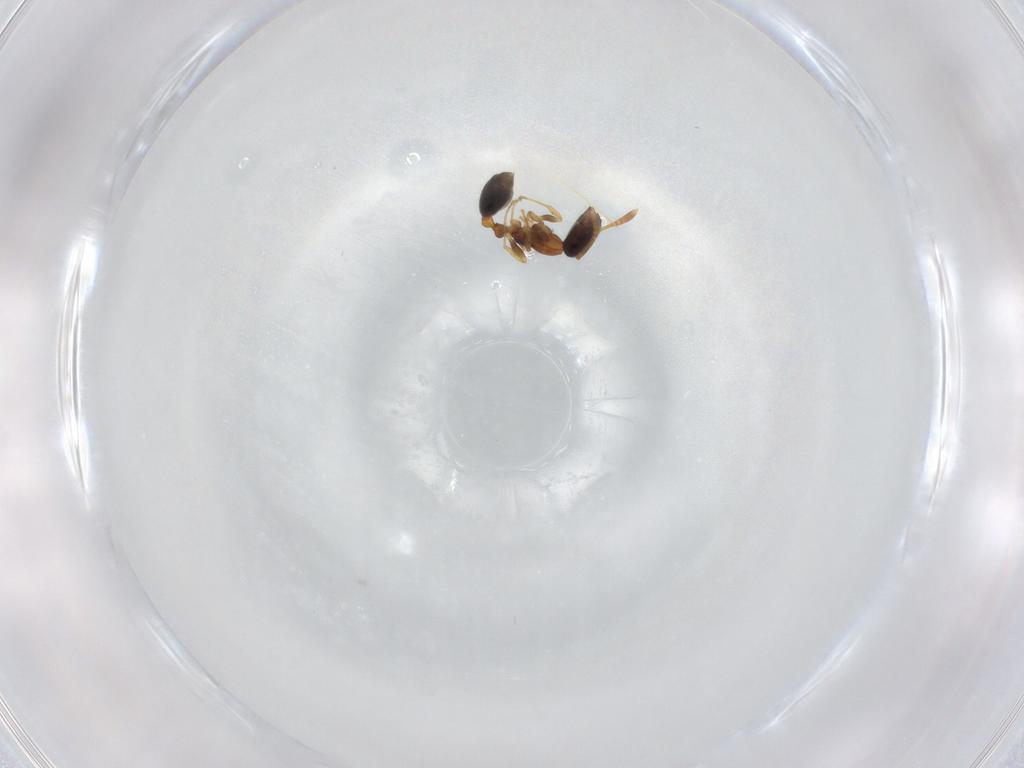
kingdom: Animalia
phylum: Arthropoda
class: Insecta
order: Hymenoptera
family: Formicidae
